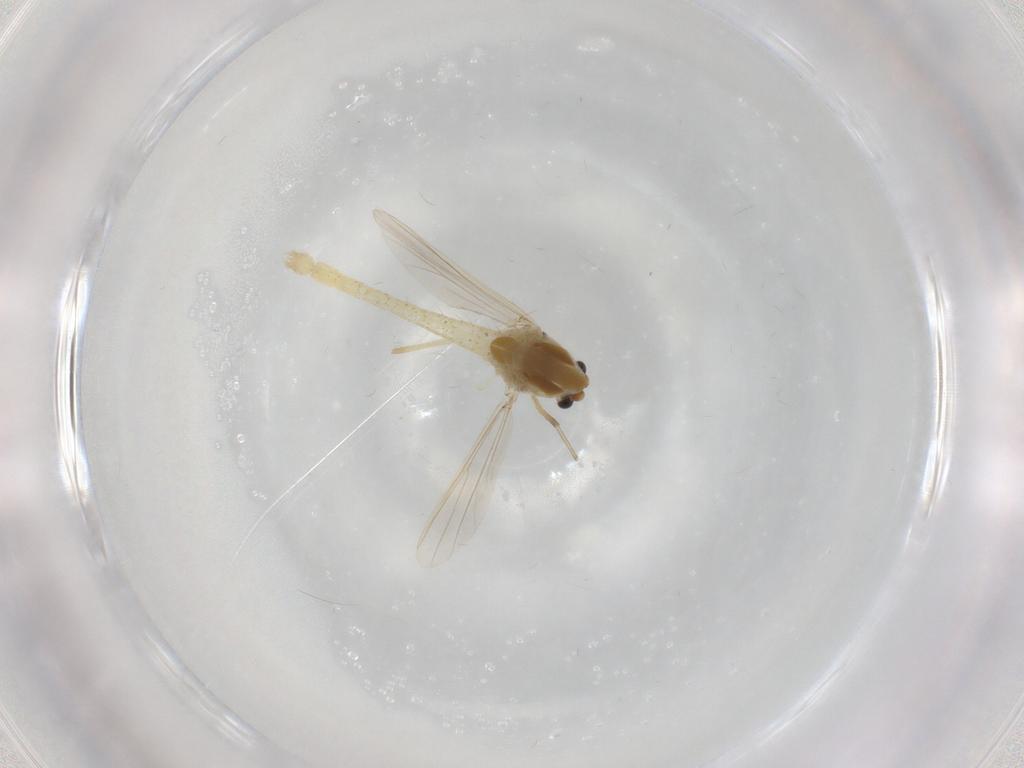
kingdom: Animalia
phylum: Arthropoda
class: Insecta
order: Diptera
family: Chironomidae
